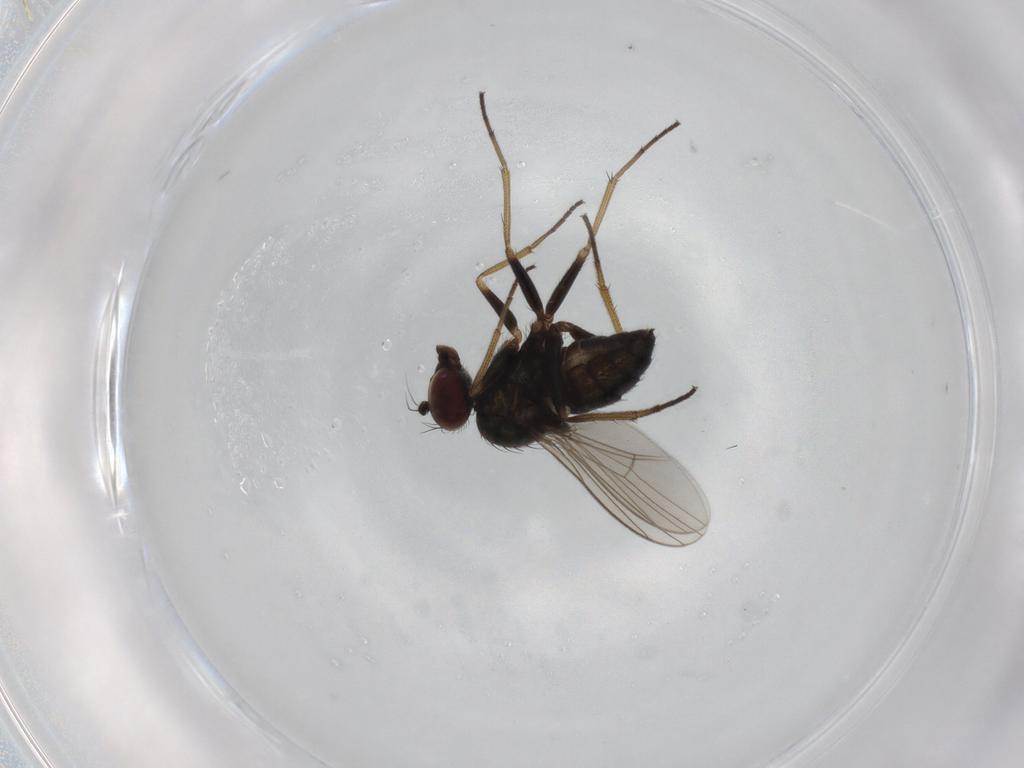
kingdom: Animalia
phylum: Arthropoda
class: Insecta
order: Diptera
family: Dolichopodidae
